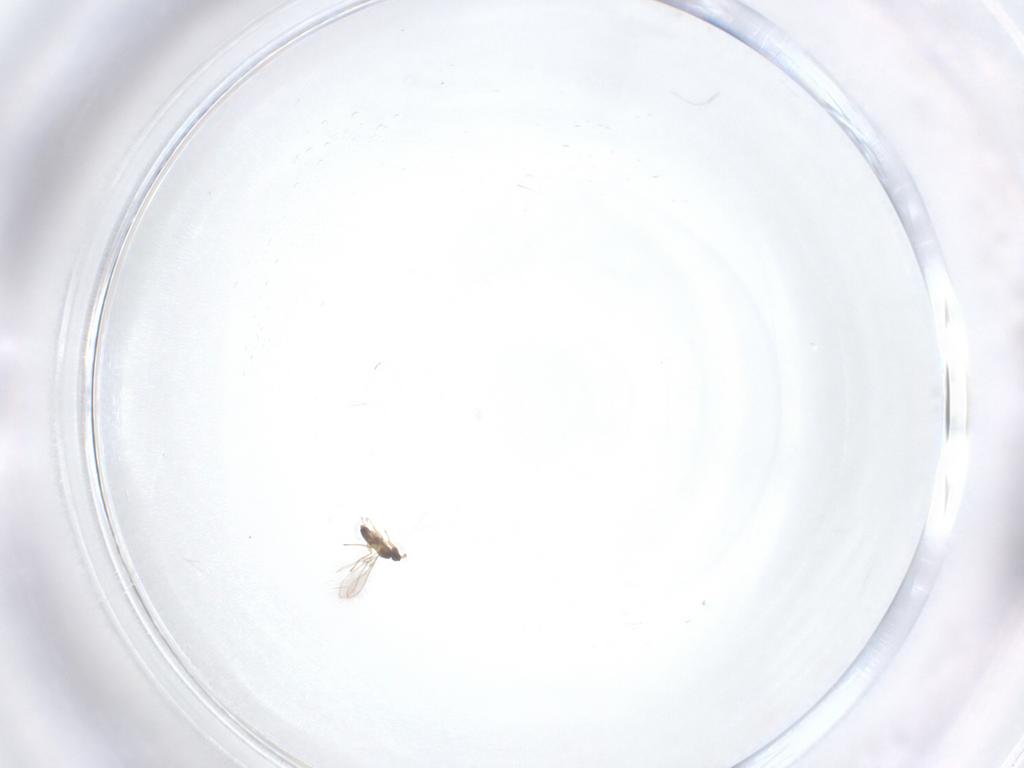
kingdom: Animalia
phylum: Arthropoda
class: Insecta
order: Hymenoptera
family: Mymaridae
